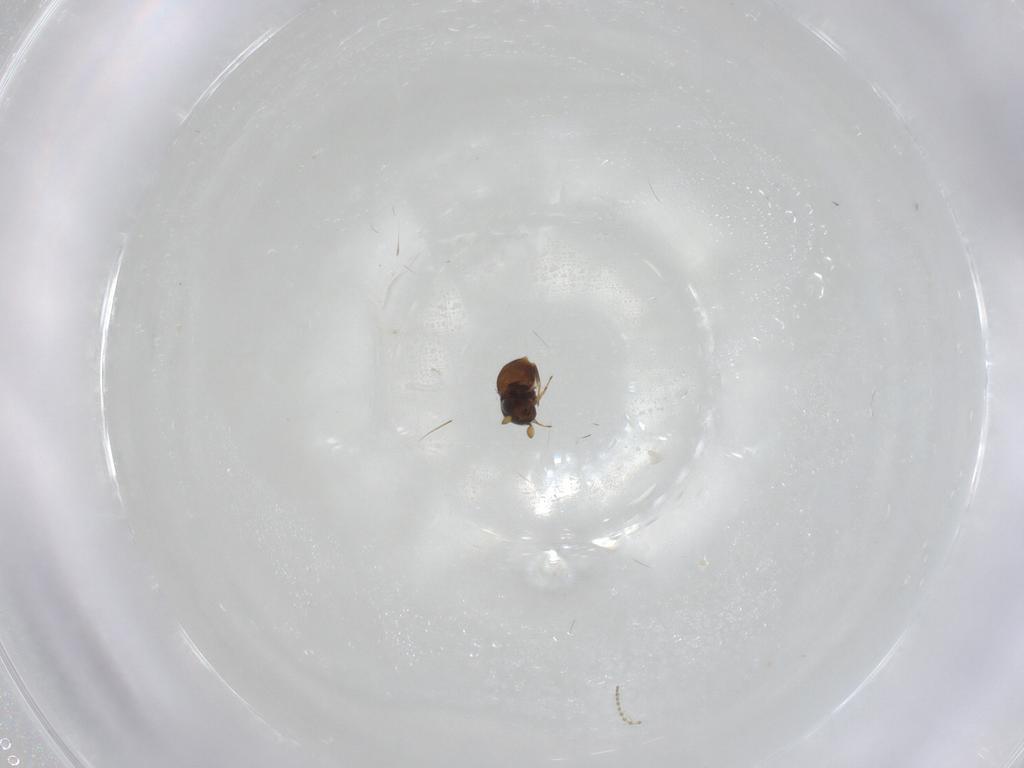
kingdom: Animalia
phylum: Arthropoda
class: Insecta
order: Hymenoptera
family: Scelionidae
